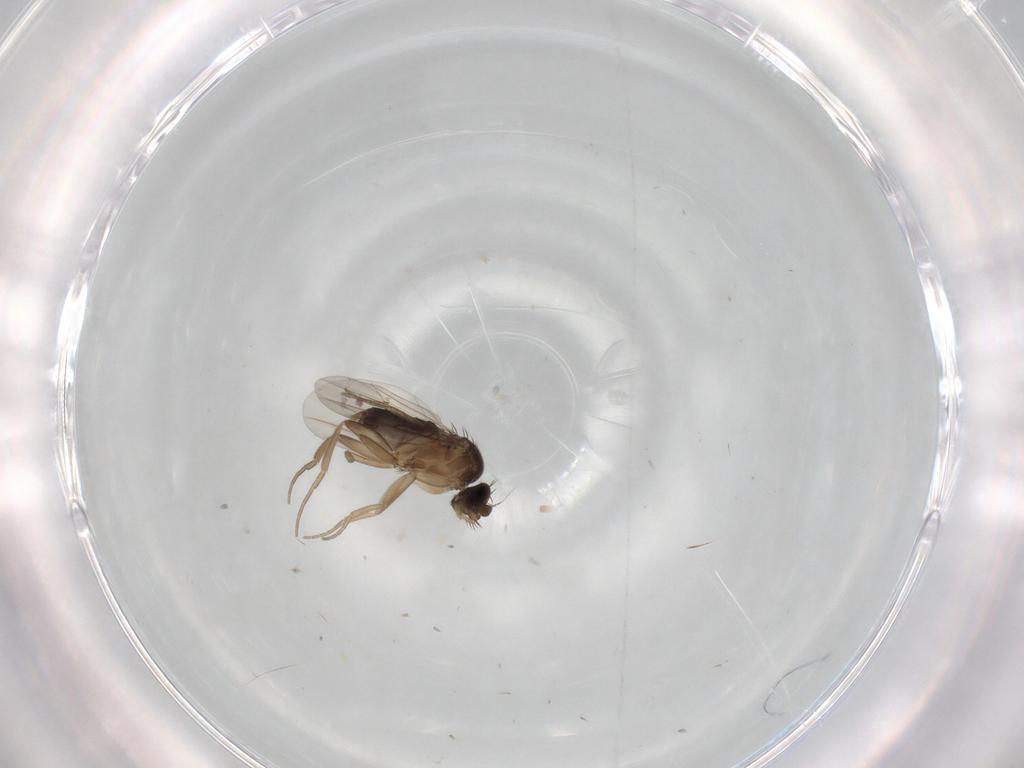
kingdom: Animalia
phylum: Arthropoda
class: Insecta
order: Diptera
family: Phoridae
